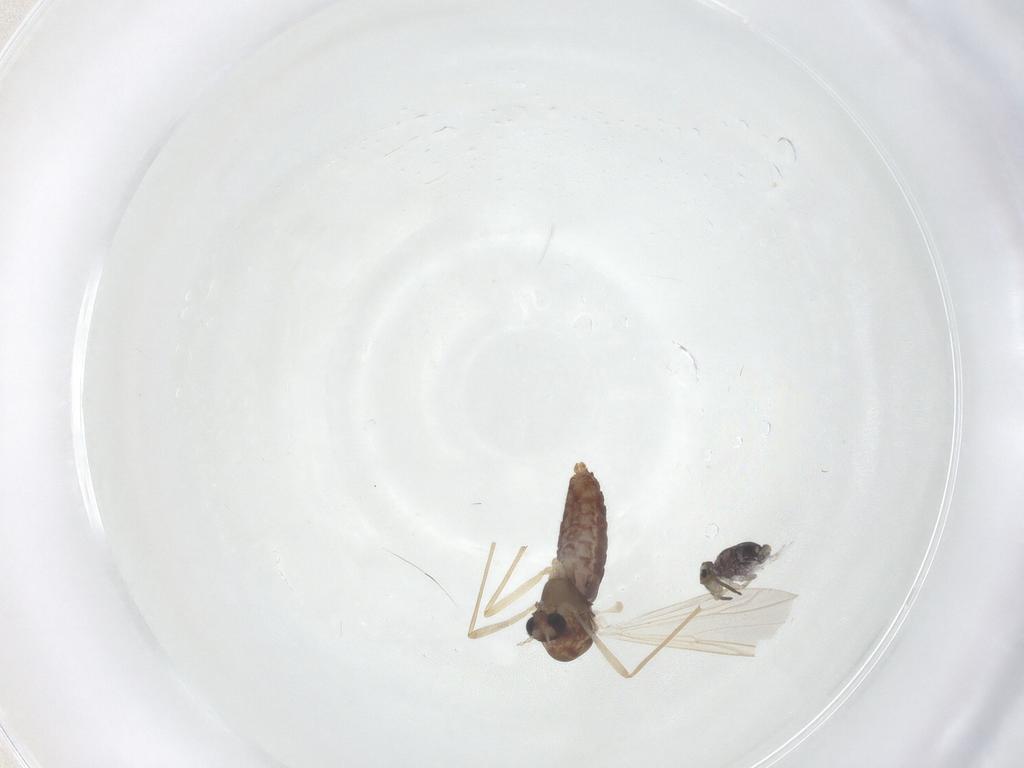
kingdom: Animalia
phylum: Arthropoda
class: Insecta
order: Diptera
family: Chironomidae
